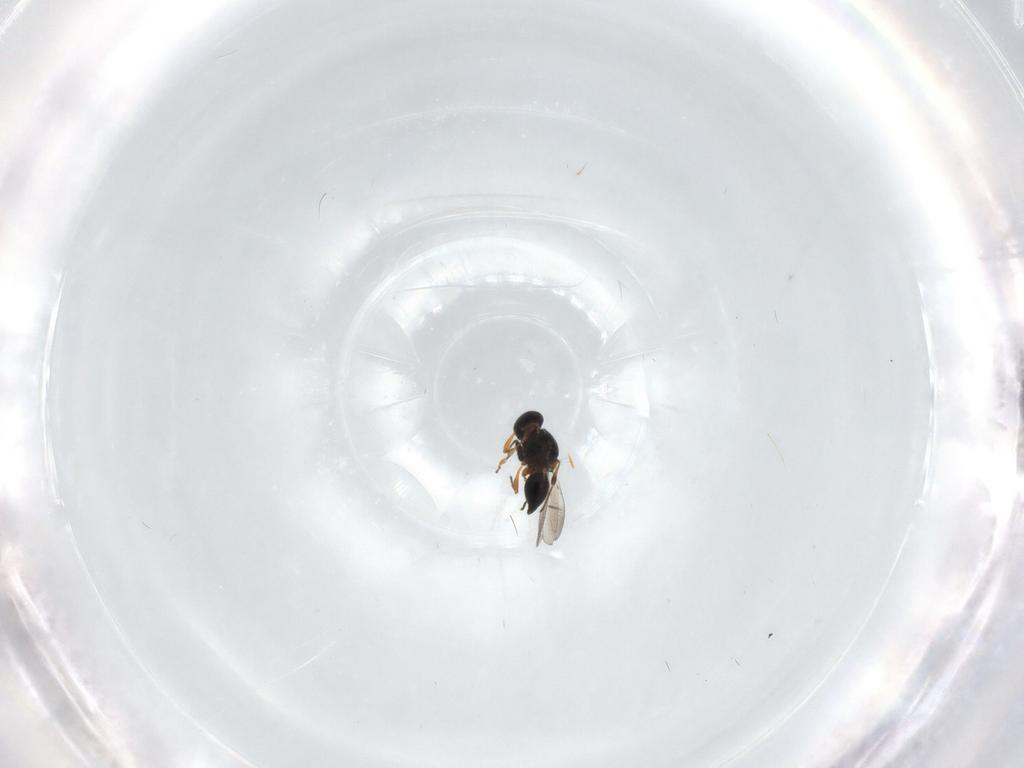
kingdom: Animalia
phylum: Arthropoda
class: Insecta
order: Hymenoptera
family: Platygastridae
